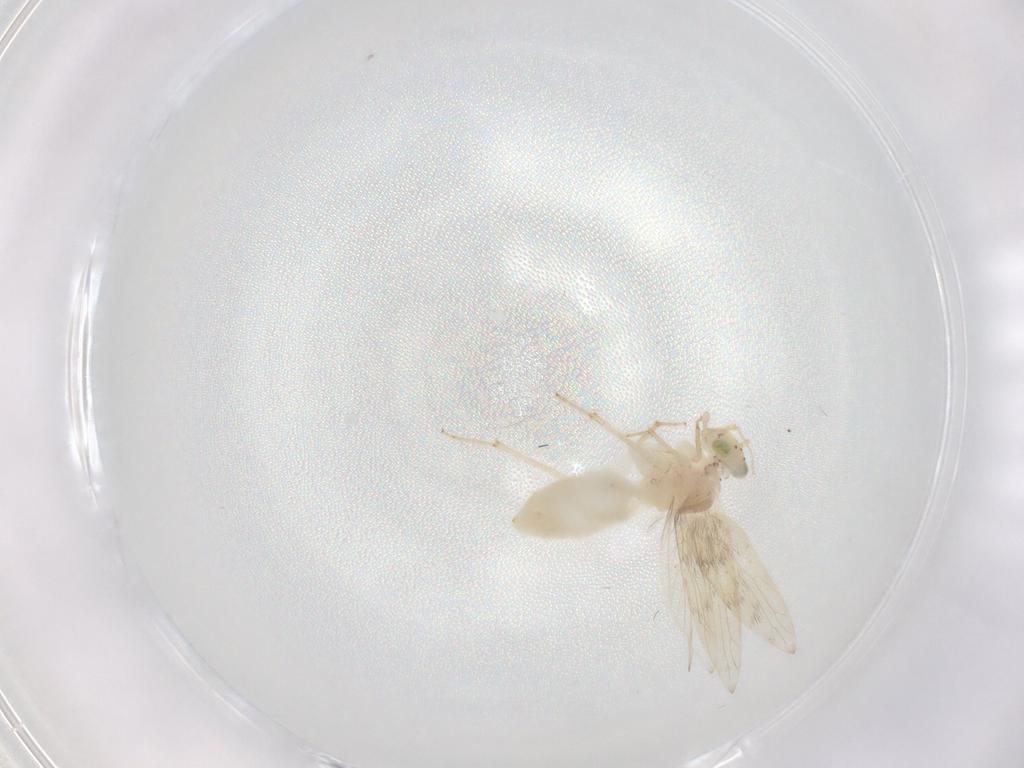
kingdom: Animalia
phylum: Arthropoda
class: Insecta
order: Psocodea
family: Lepidopsocidae
